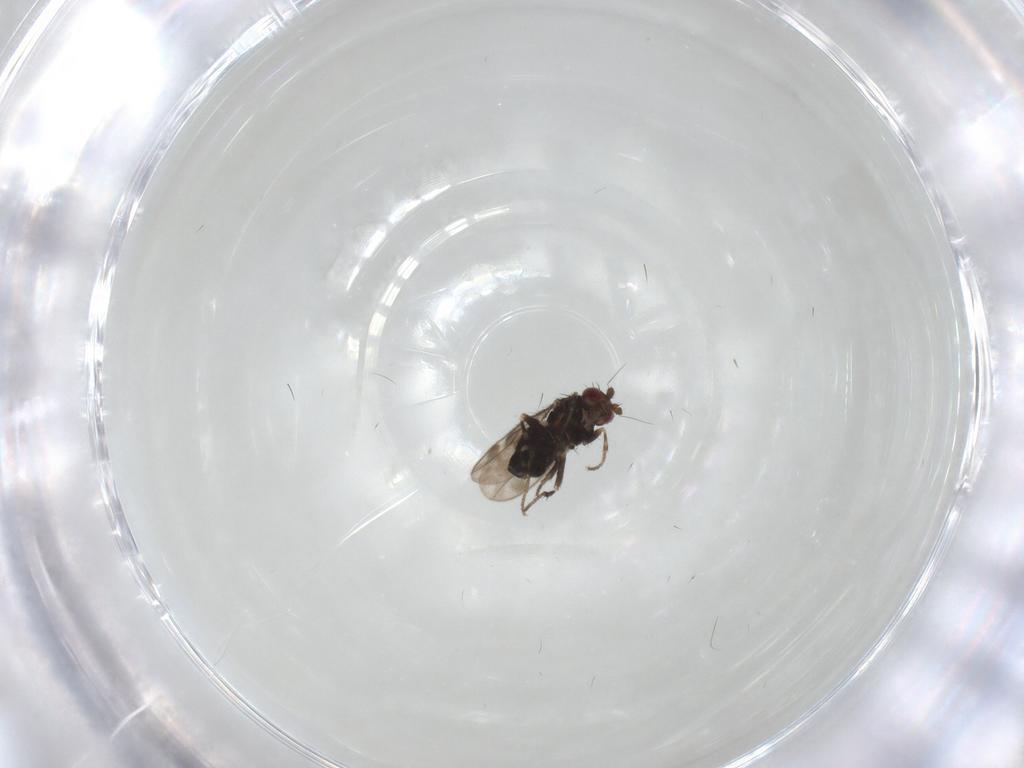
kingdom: Animalia
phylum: Arthropoda
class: Insecta
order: Diptera
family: Sphaeroceridae
